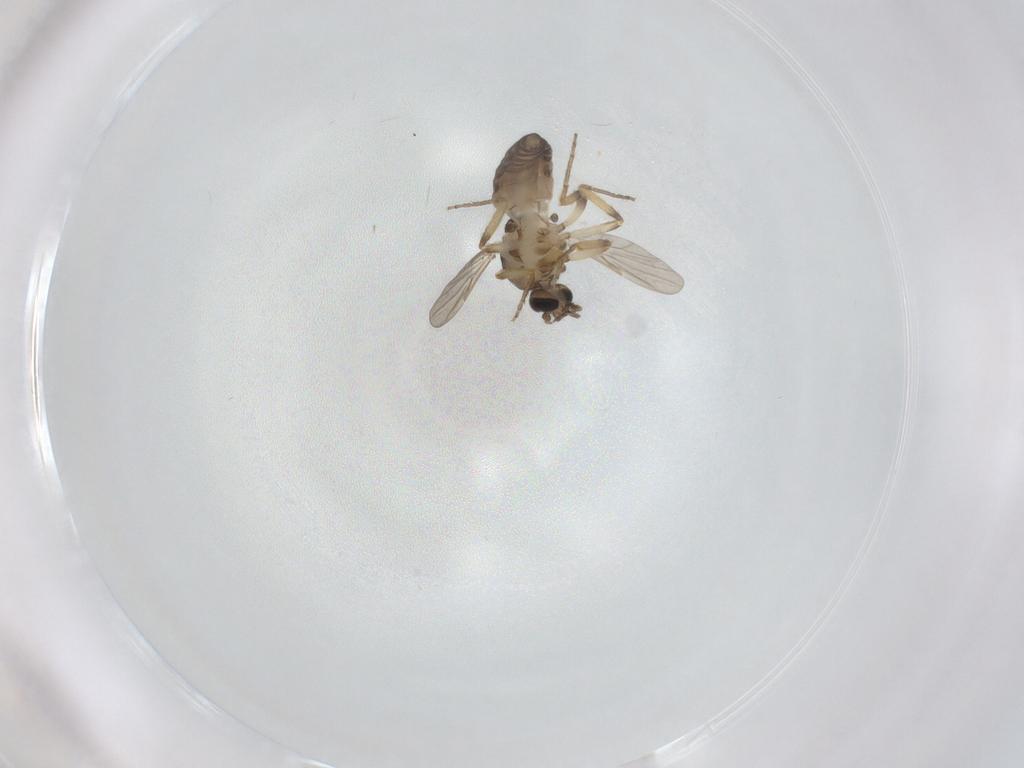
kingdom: Animalia
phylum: Arthropoda
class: Insecta
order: Diptera
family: Ceratopogonidae
